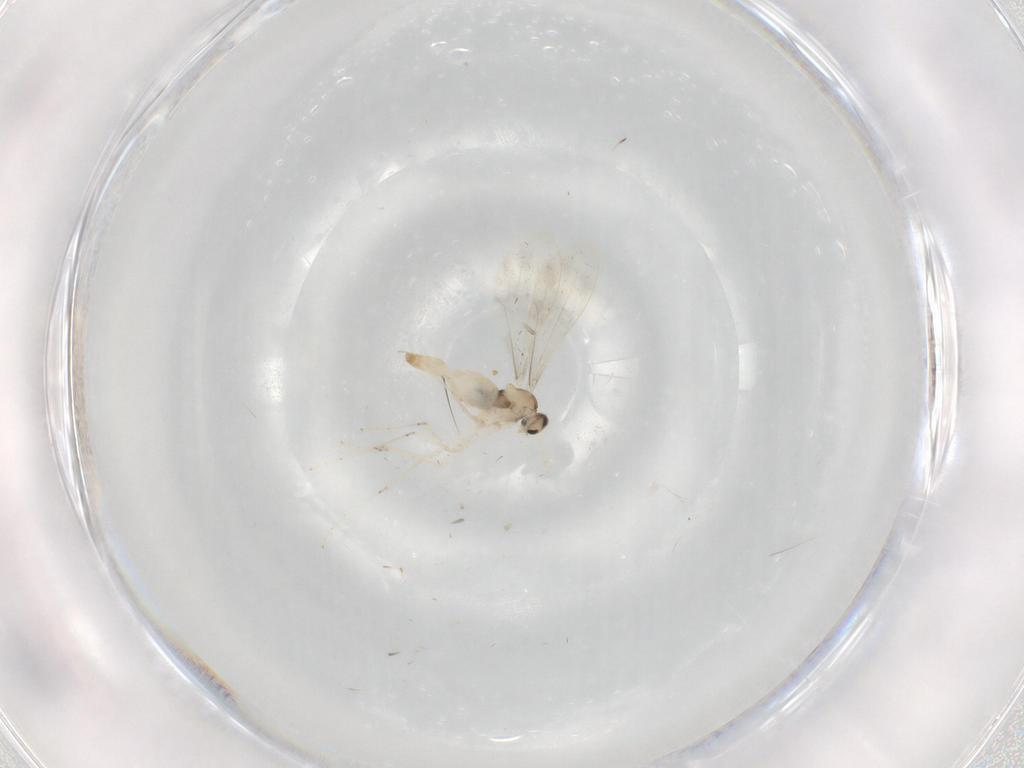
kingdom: Animalia
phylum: Arthropoda
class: Insecta
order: Diptera
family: Cecidomyiidae
